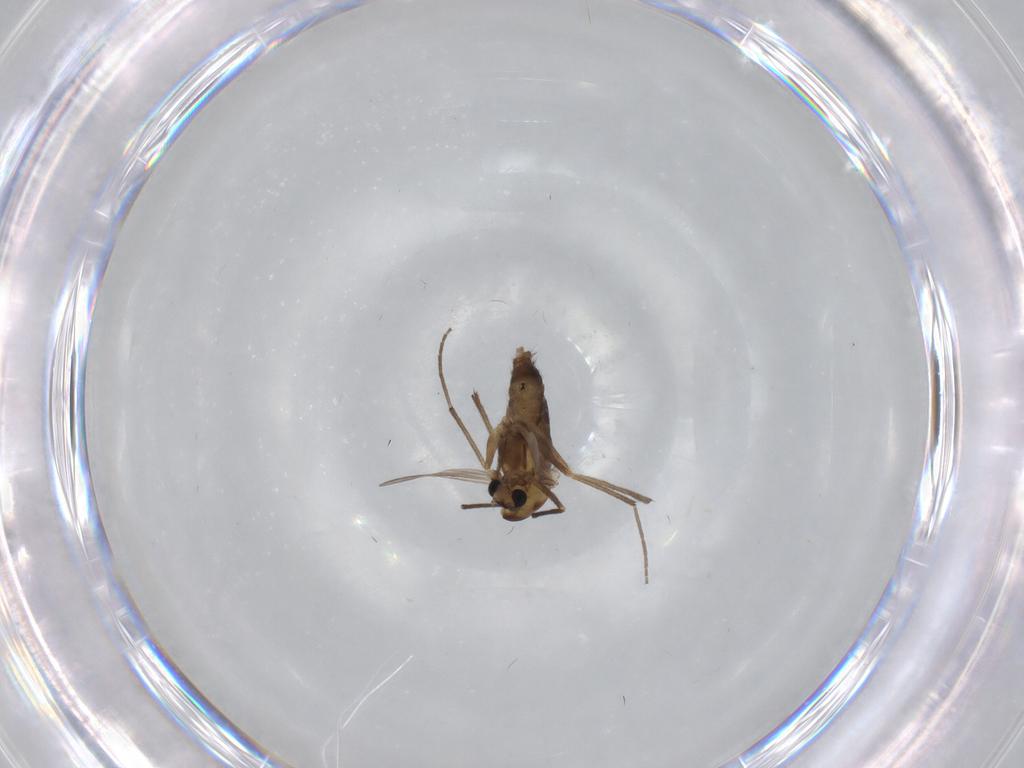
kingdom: Animalia
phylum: Arthropoda
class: Insecta
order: Diptera
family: Chironomidae
